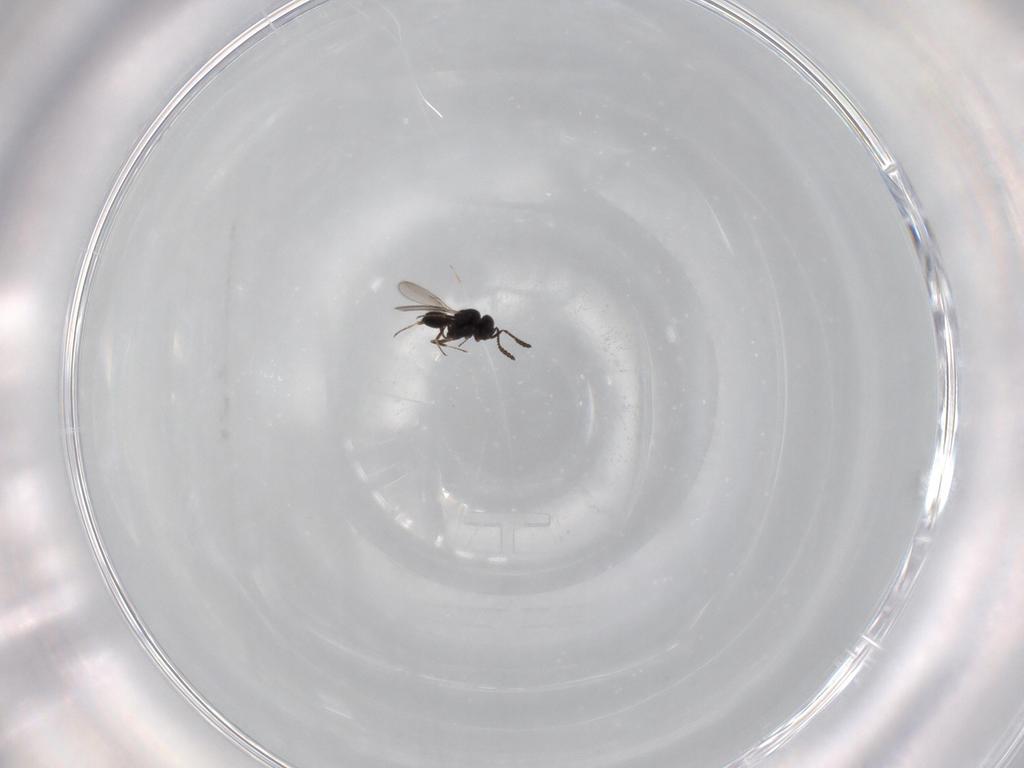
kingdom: Animalia
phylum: Arthropoda
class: Insecta
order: Hymenoptera
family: Scelionidae
